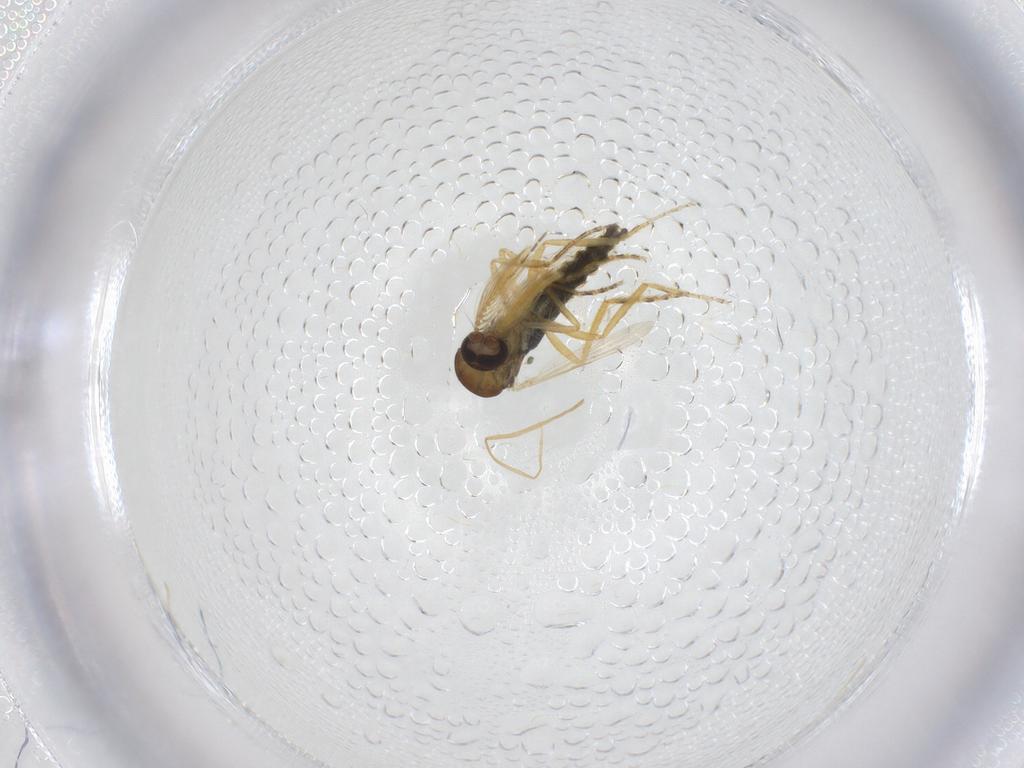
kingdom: Animalia
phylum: Arthropoda
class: Insecta
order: Diptera
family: Ceratopogonidae
